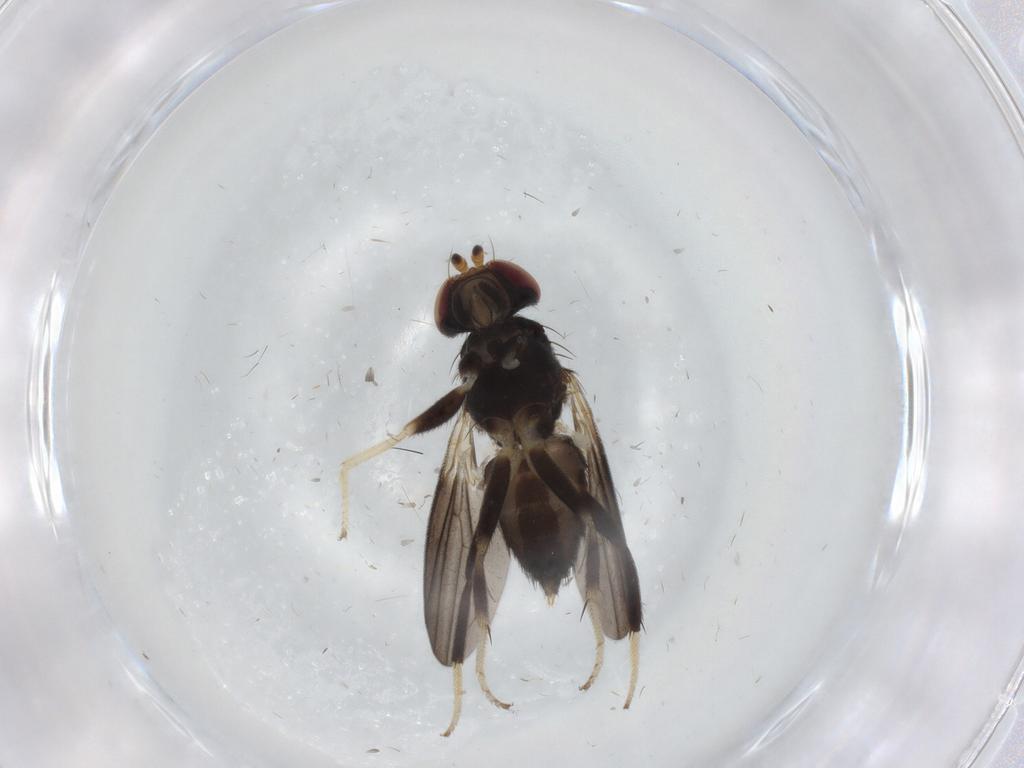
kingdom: Animalia
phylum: Arthropoda
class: Insecta
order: Diptera
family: Clusiidae
